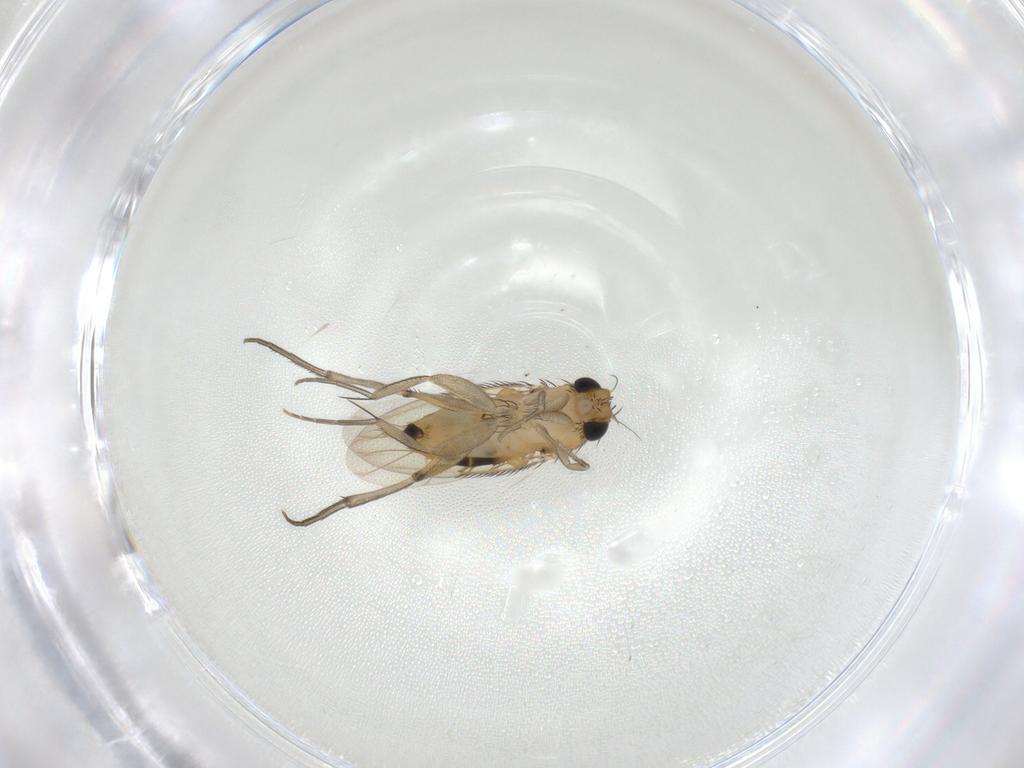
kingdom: Animalia
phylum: Arthropoda
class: Insecta
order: Diptera
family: Phoridae
